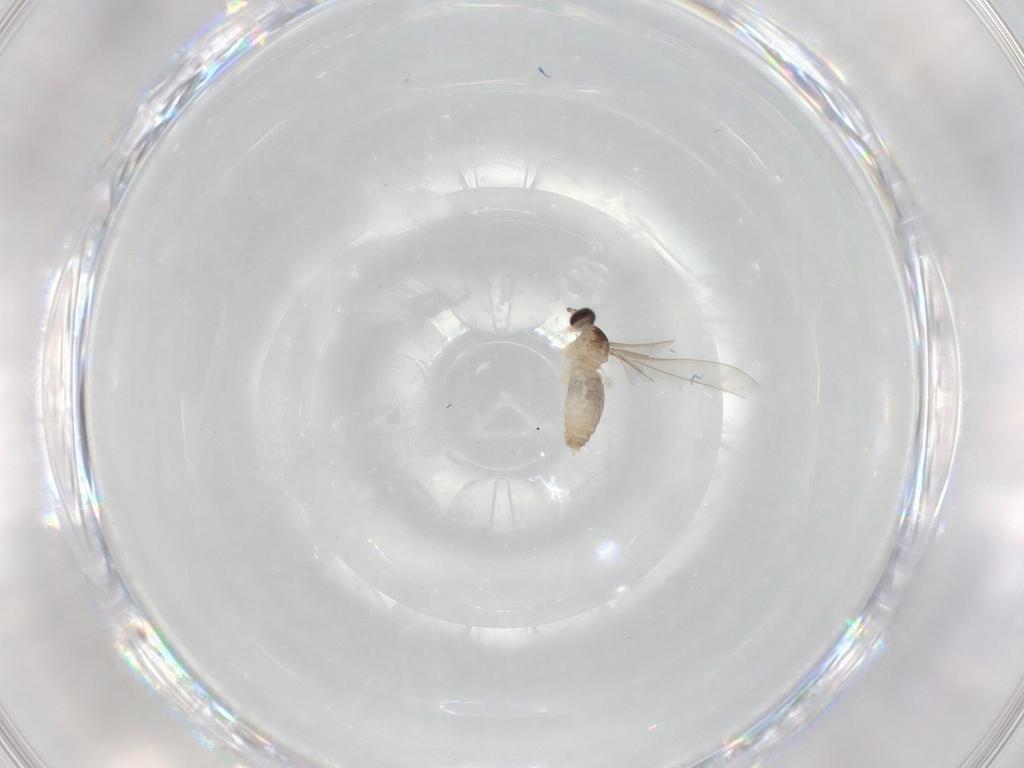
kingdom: Animalia
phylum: Arthropoda
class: Insecta
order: Diptera
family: Cecidomyiidae
